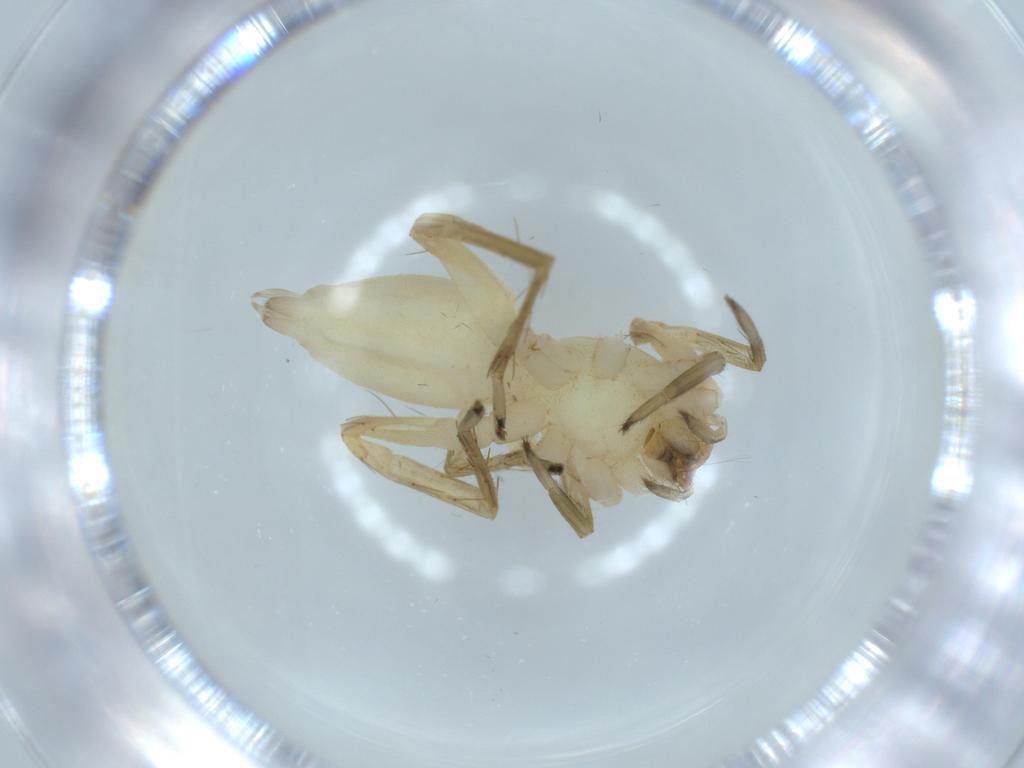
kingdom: Animalia
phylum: Arthropoda
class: Arachnida
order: Araneae
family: Clubionidae
